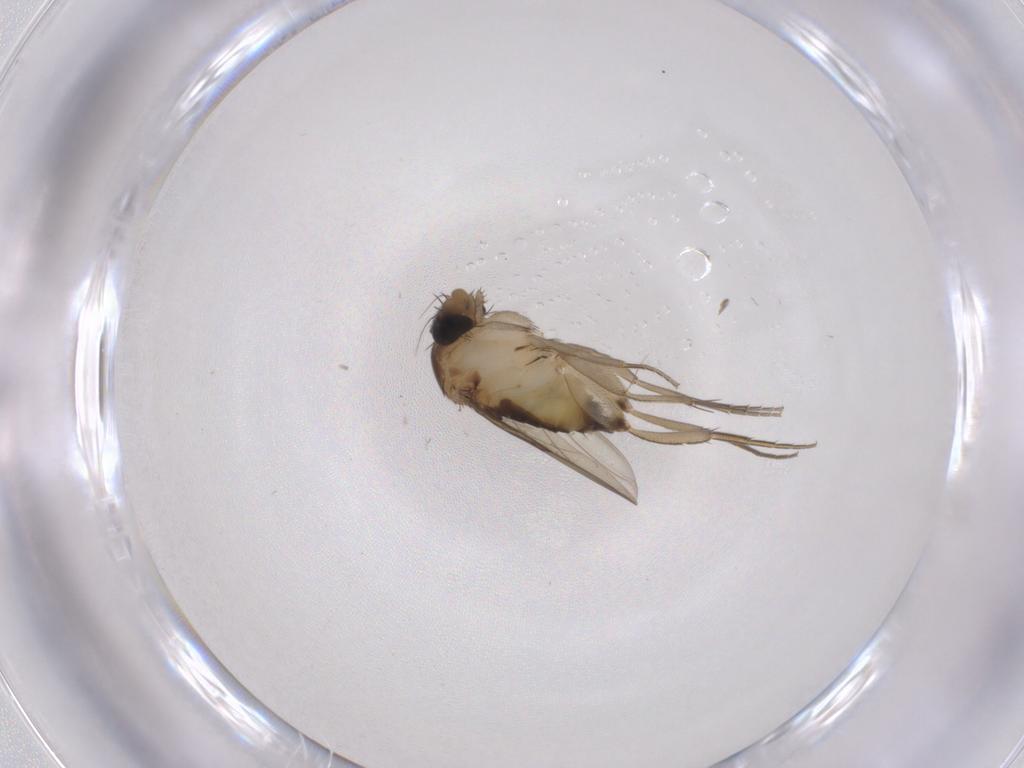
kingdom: Animalia
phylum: Arthropoda
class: Insecta
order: Diptera
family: Phoridae
